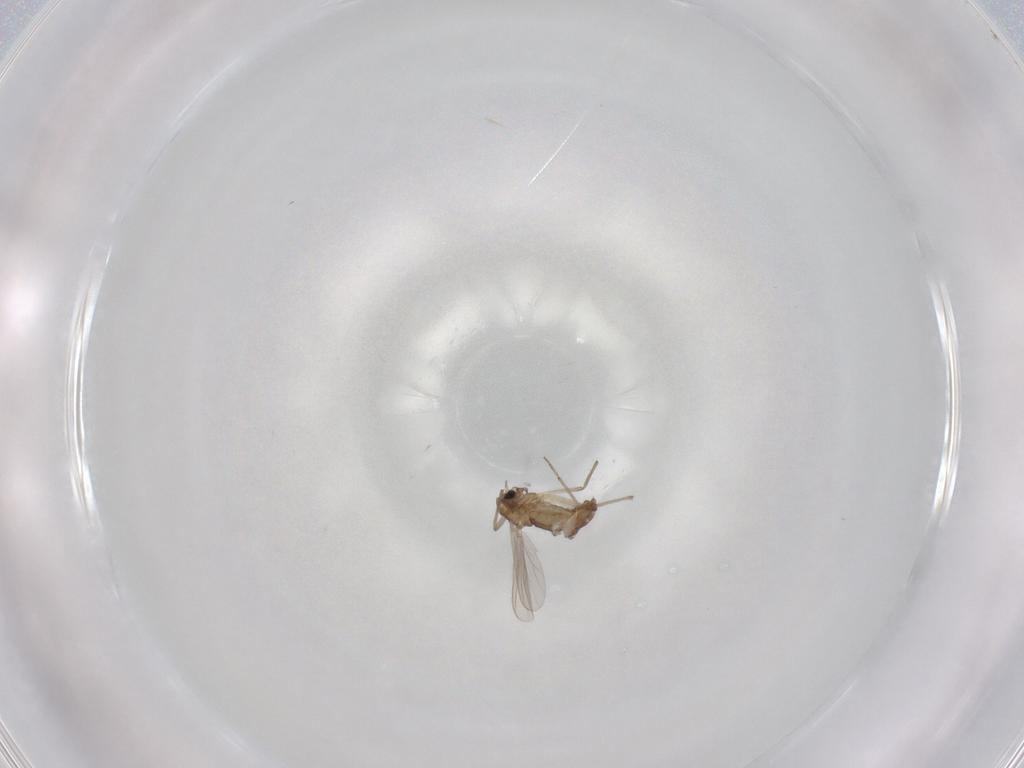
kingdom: Animalia
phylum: Arthropoda
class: Insecta
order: Diptera
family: Chironomidae
